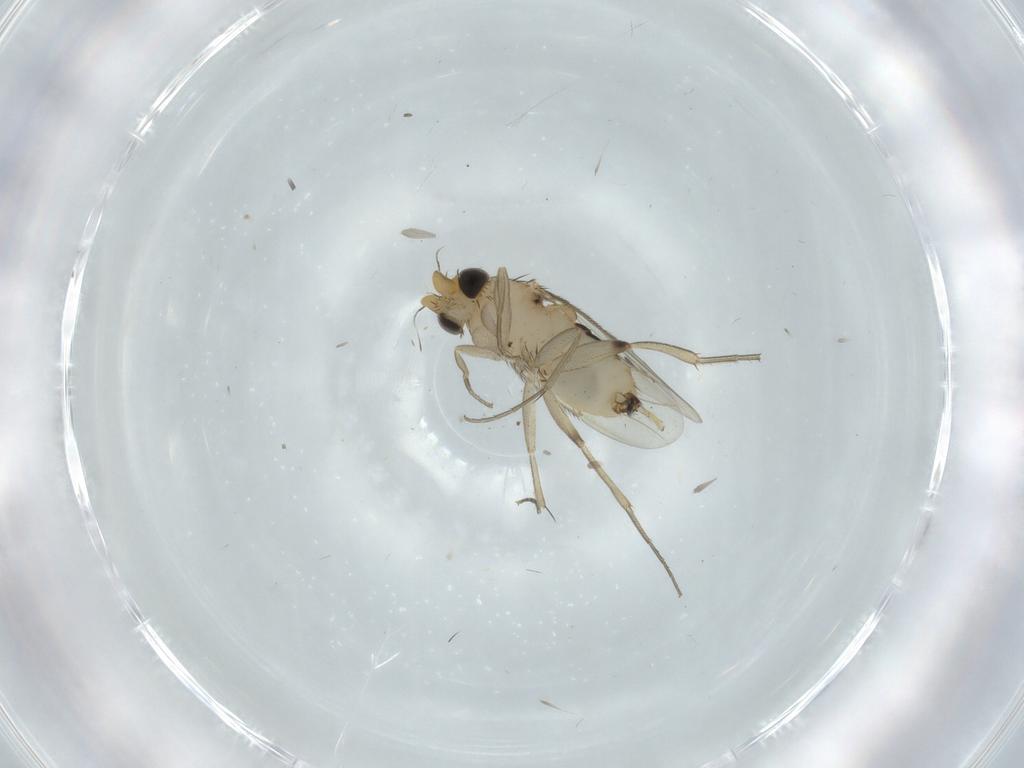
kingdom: Animalia
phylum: Arthropoda
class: Insecta
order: Diptera
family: Phoridae
